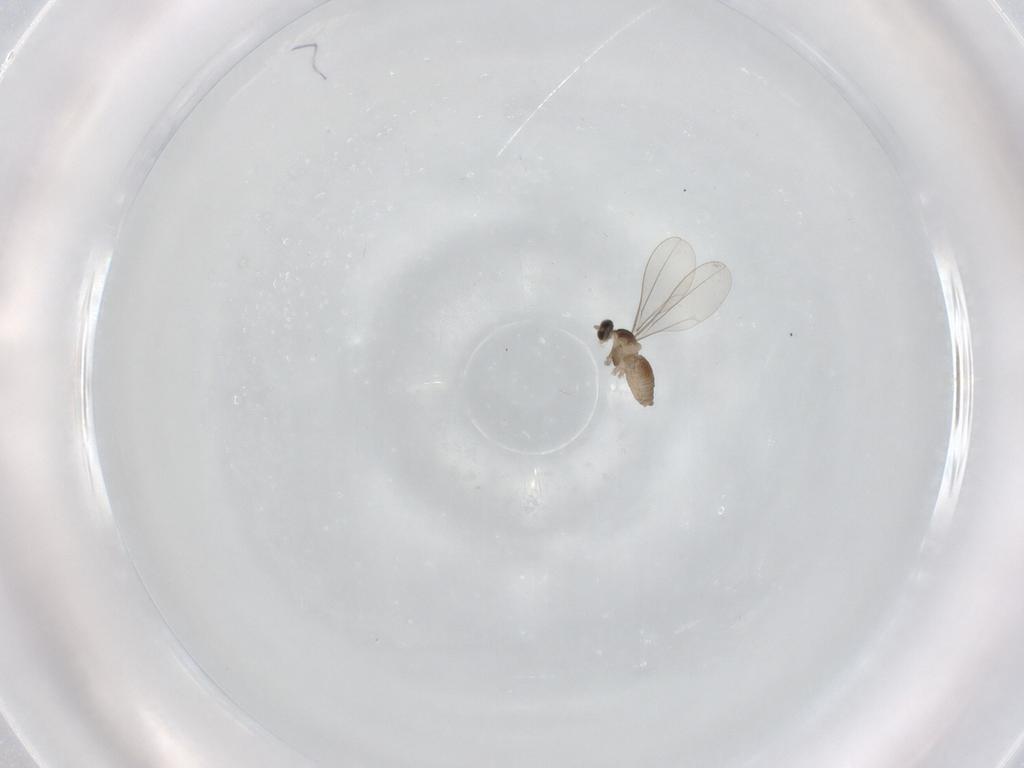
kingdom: Animalia
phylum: Arthropoda
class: Insecta
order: Diptera
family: Cecidomyiidae
